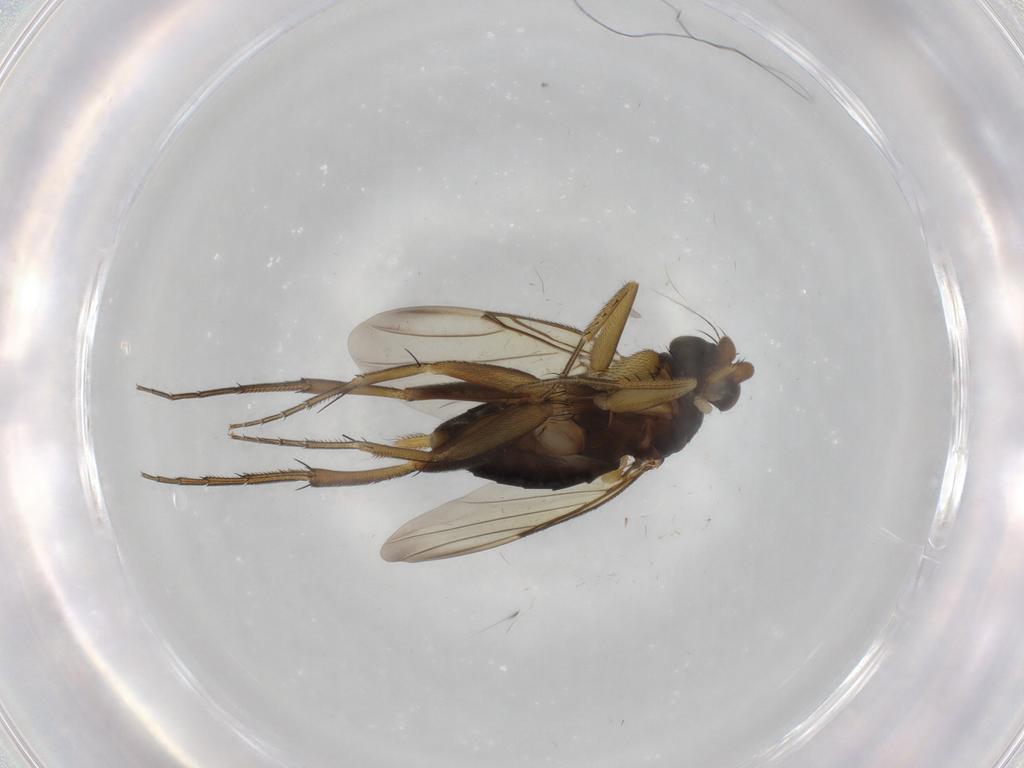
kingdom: Animalia
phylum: Arthropoda
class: Insecta
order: Diptera
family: Phoridae
